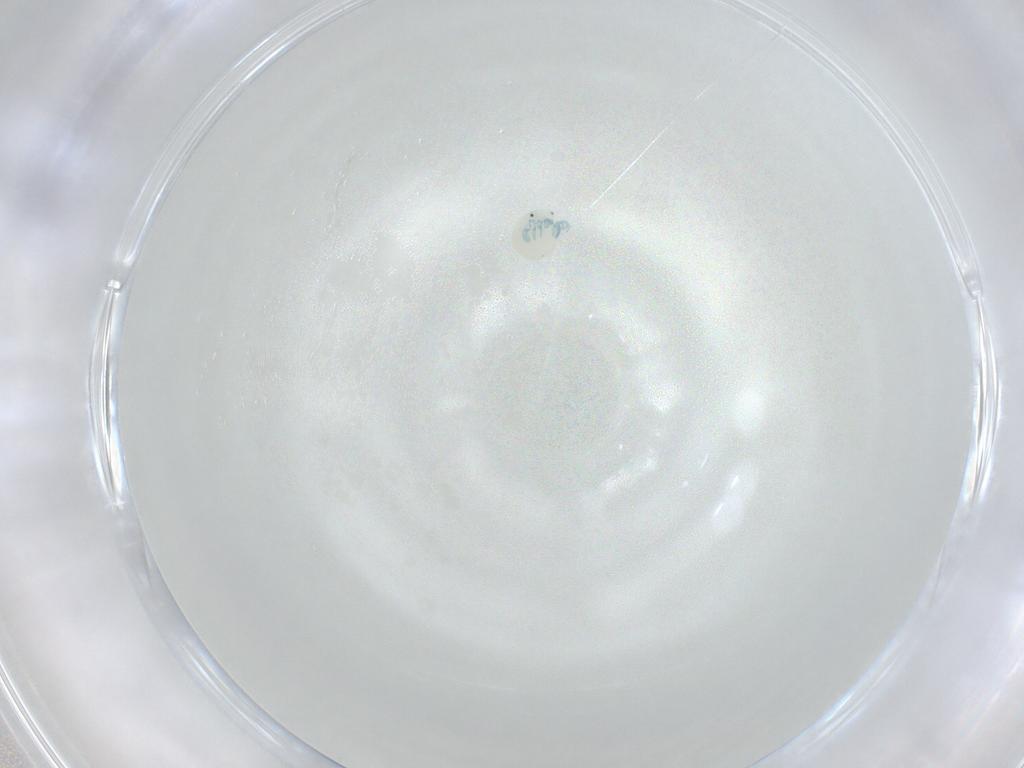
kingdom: Animalia
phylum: Arthropoda
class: Arachnida
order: Trombidiformes
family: Arrenuridae
